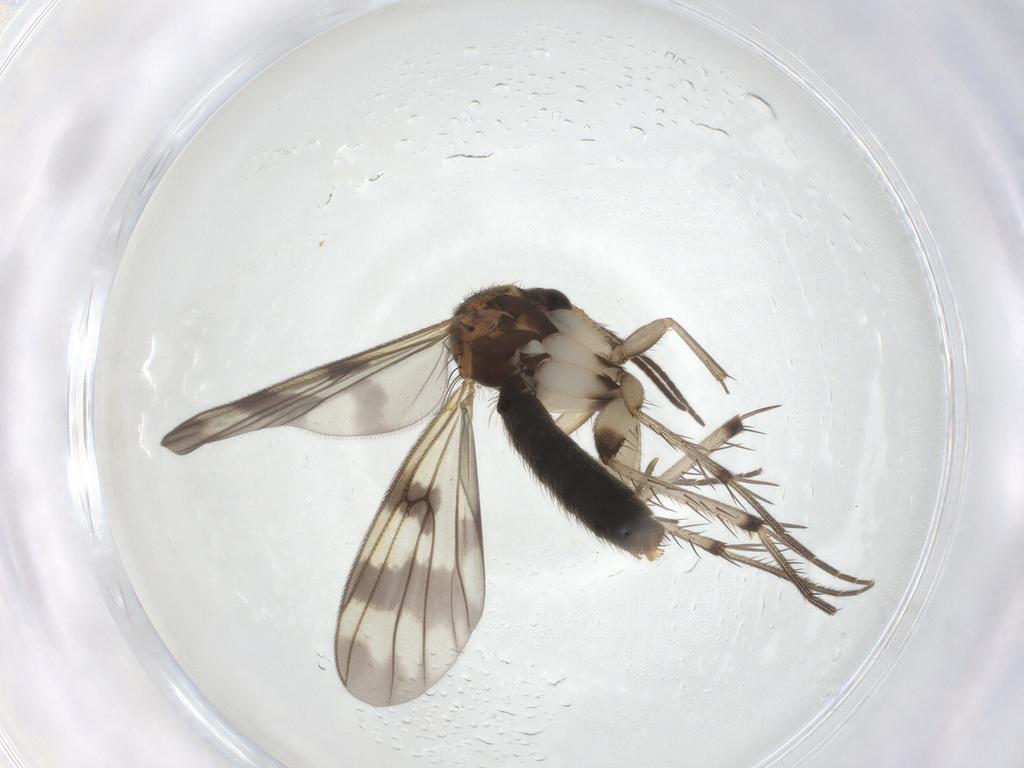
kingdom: Animalia
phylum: Arthropoda
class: Insecta
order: Diptera
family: Mycetophilidae
